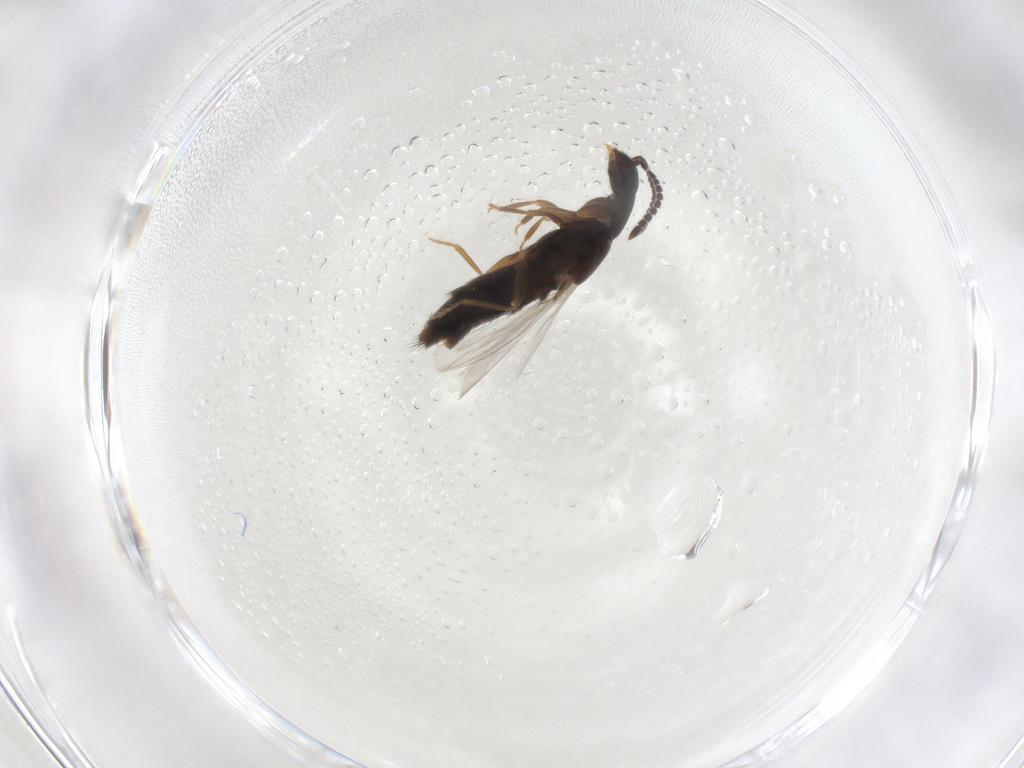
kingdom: Animalia
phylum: Arthropoda
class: Insecta
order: Coleoptera
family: Staphylinidae
